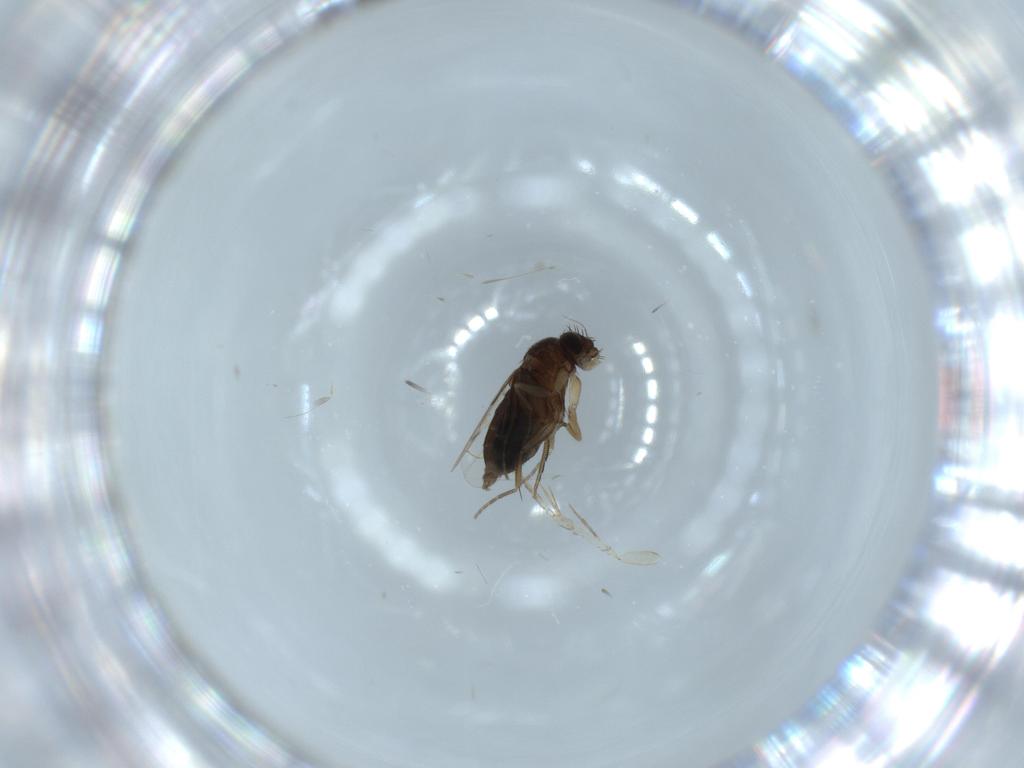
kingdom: Animalia
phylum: Arthropoda
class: Insecta
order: Diptera
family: Phoridae
